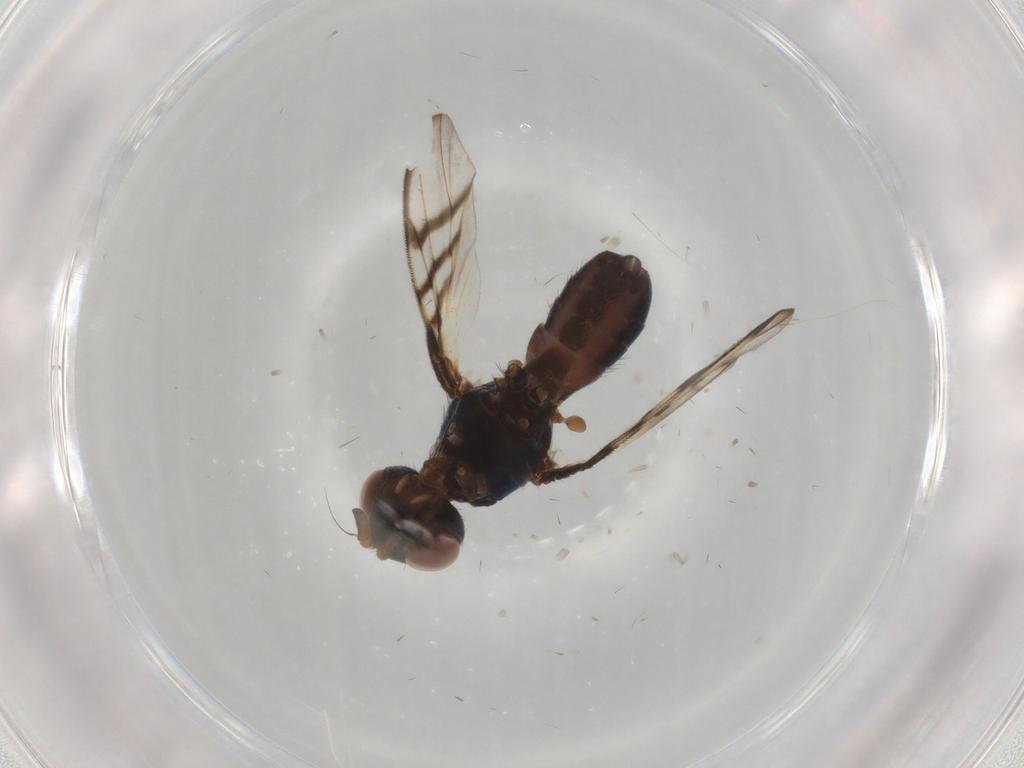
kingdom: Animalia
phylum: Arthropoda
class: Insecta
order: Diptera
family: Platystomatidae
